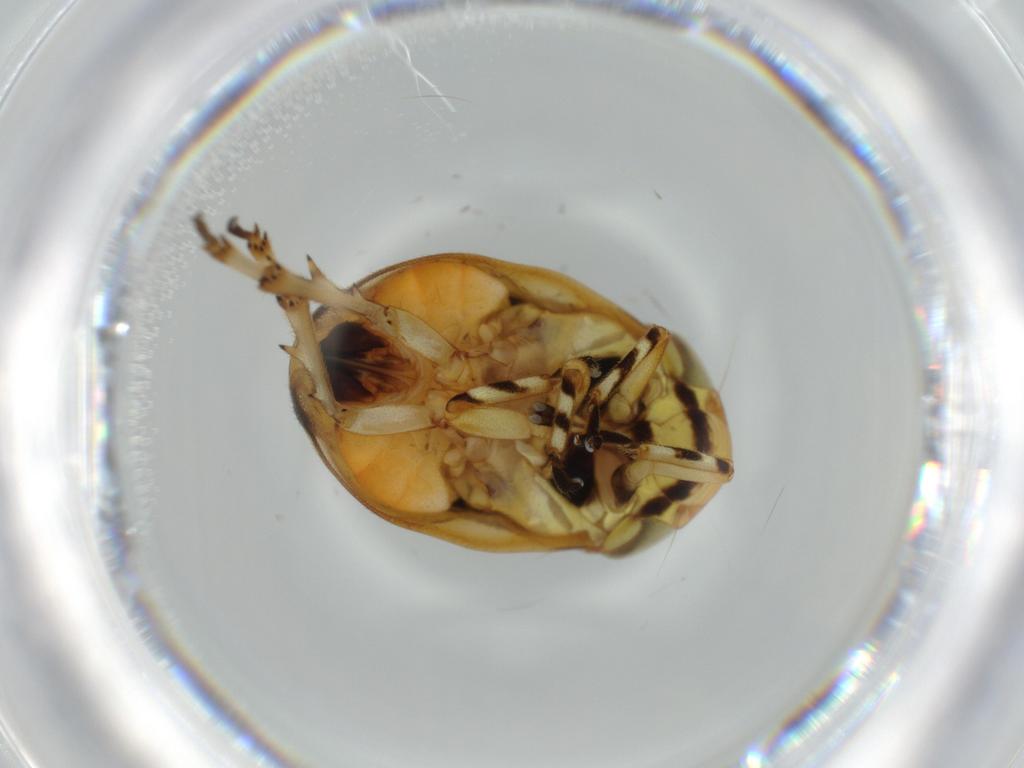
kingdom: Animalia
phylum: Arthropoda
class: Insecta
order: Hemiptera
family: Clastopteridae
